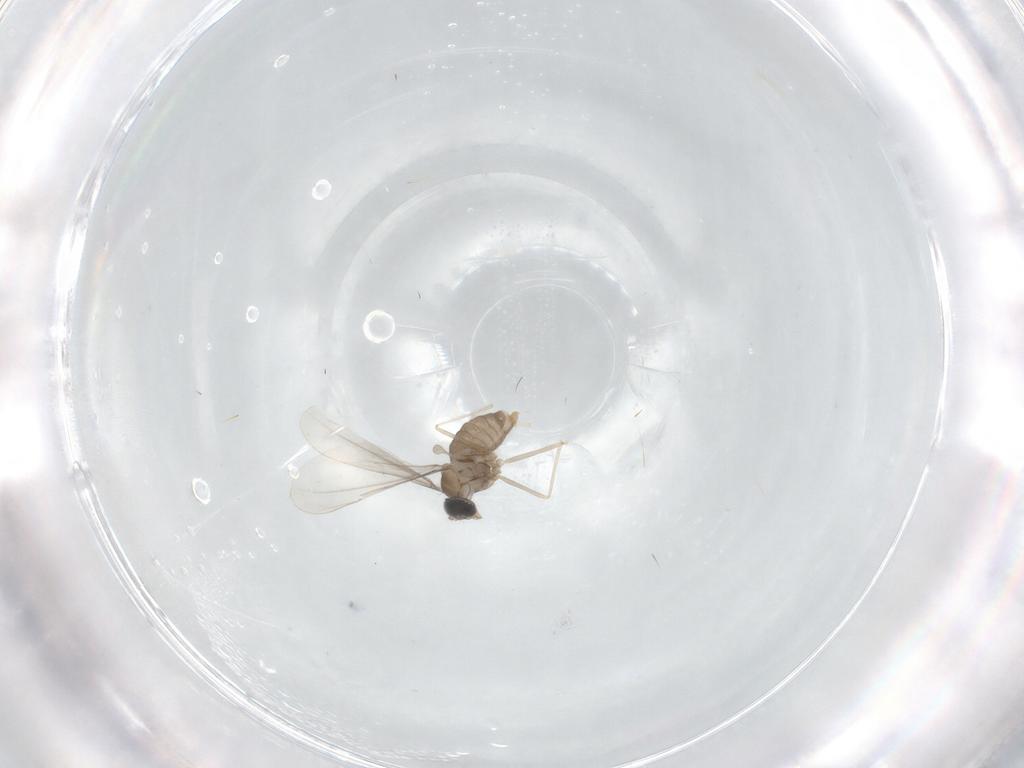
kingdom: Animalia
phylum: Arthropoda
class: Insecta
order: Diptera
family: Cecidomyiidae
